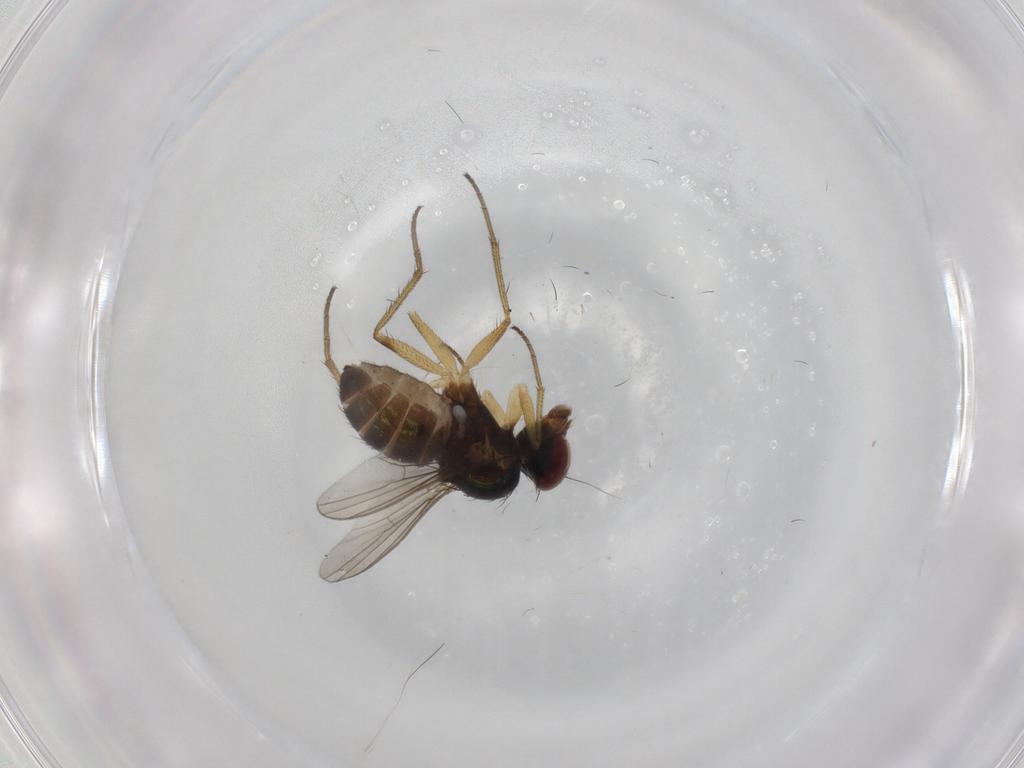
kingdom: Animalia
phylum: Arthropoda
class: Insecta
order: Diptera
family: Dolichopodidae
